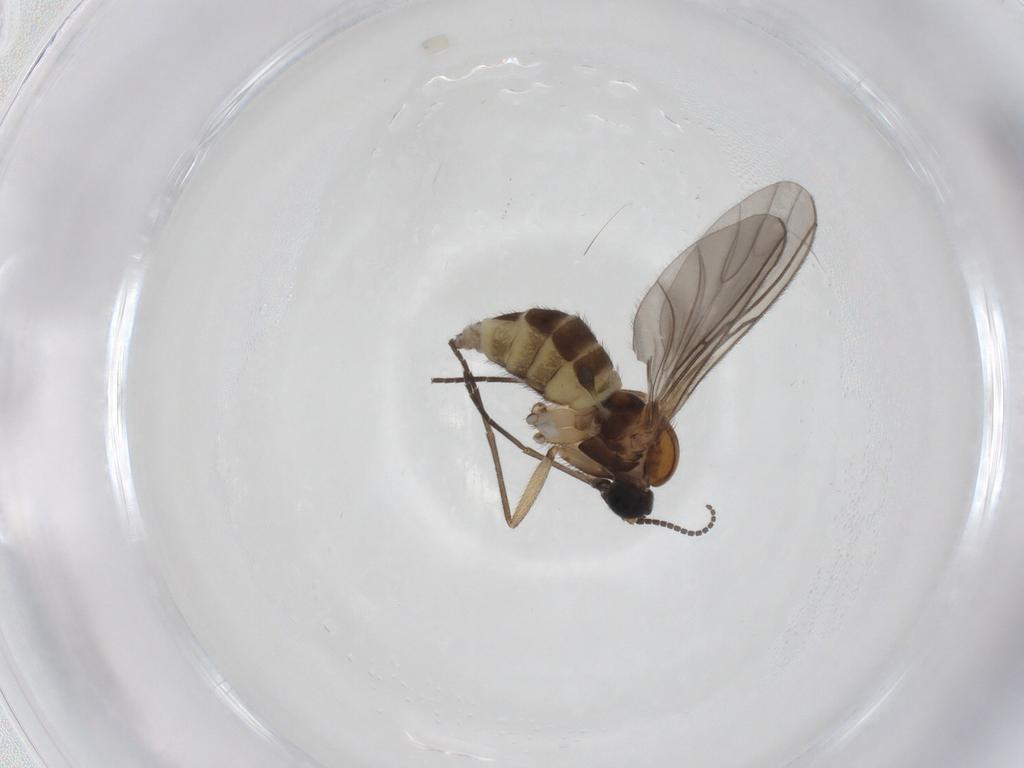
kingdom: Animalia
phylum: Arthropoda
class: Insecta
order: Diptera
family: Sciaridae
